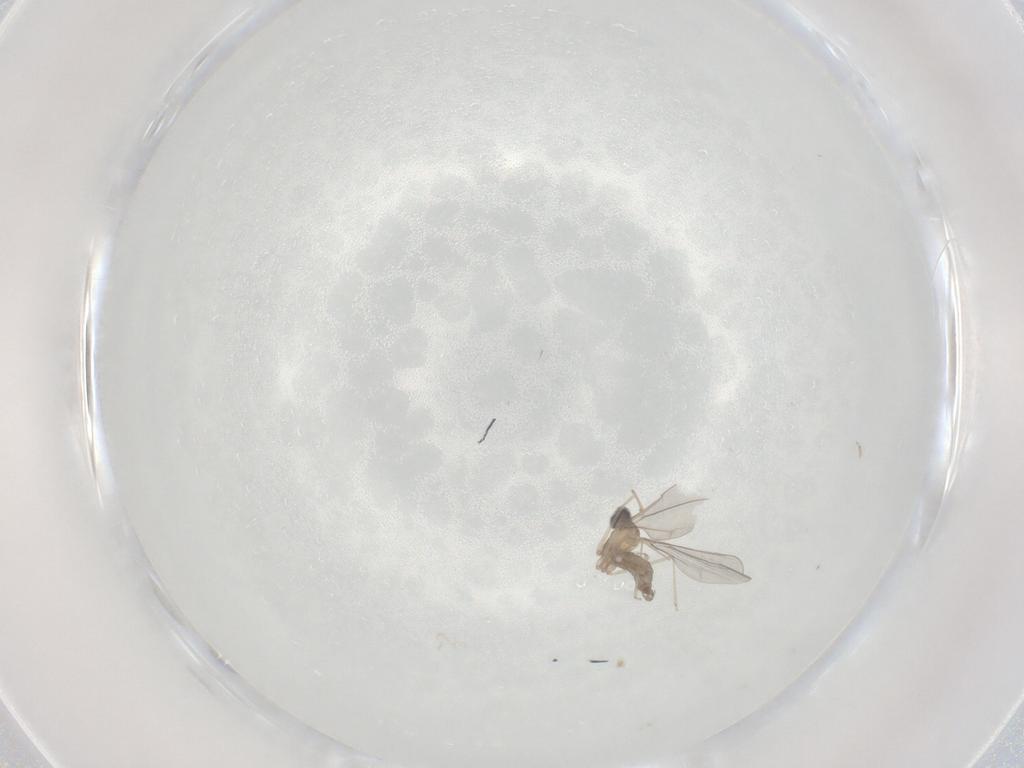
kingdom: Animalia
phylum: Arthropoda
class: Insecta
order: Diptera
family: Cecidomyiidae
